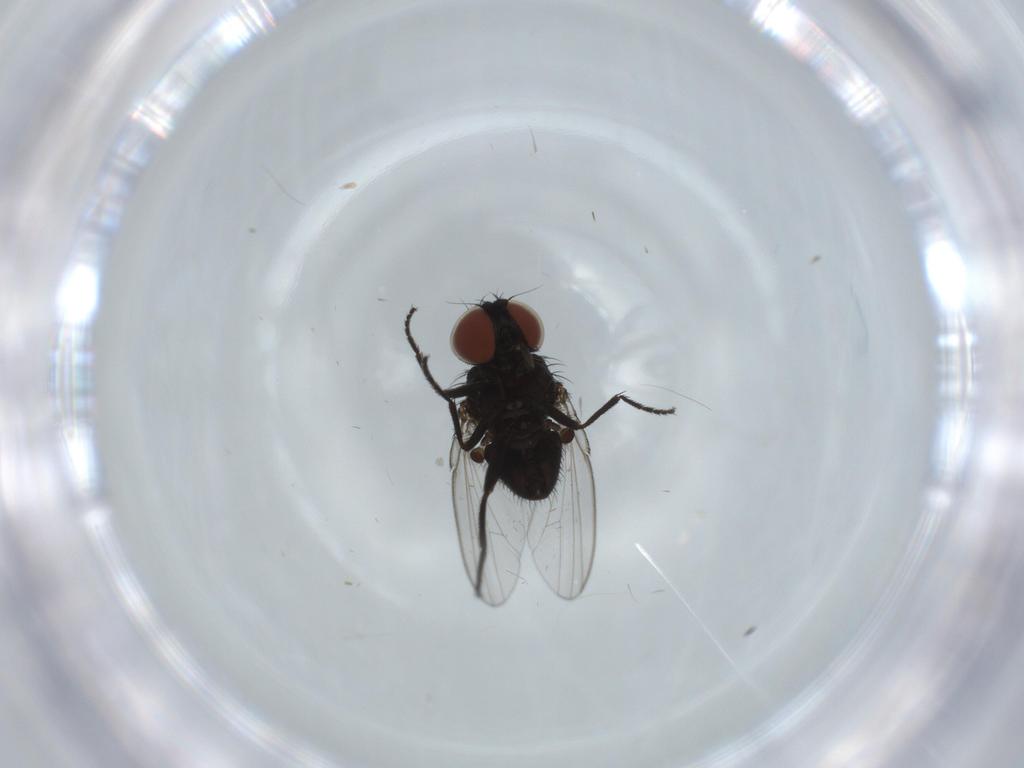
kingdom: Animalia
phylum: Arthropoda
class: Insecta
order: Diptera
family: Milichiidae
